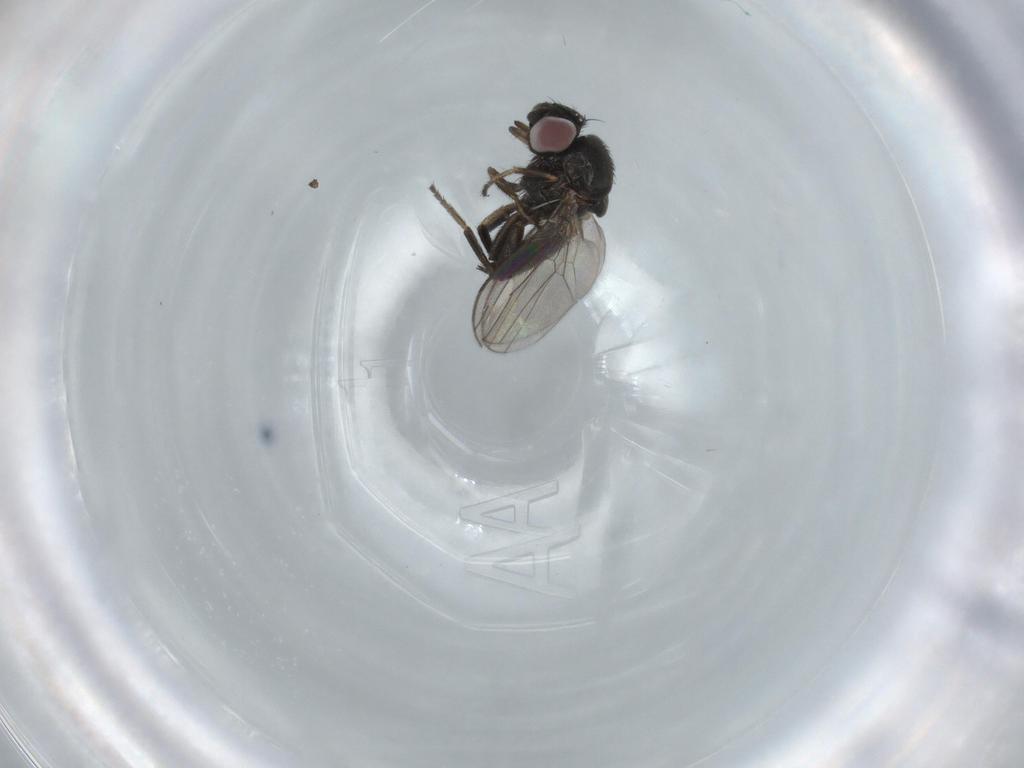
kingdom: Animalia
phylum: Arthropoda
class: Insecta
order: Diptera
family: Milichiidae
